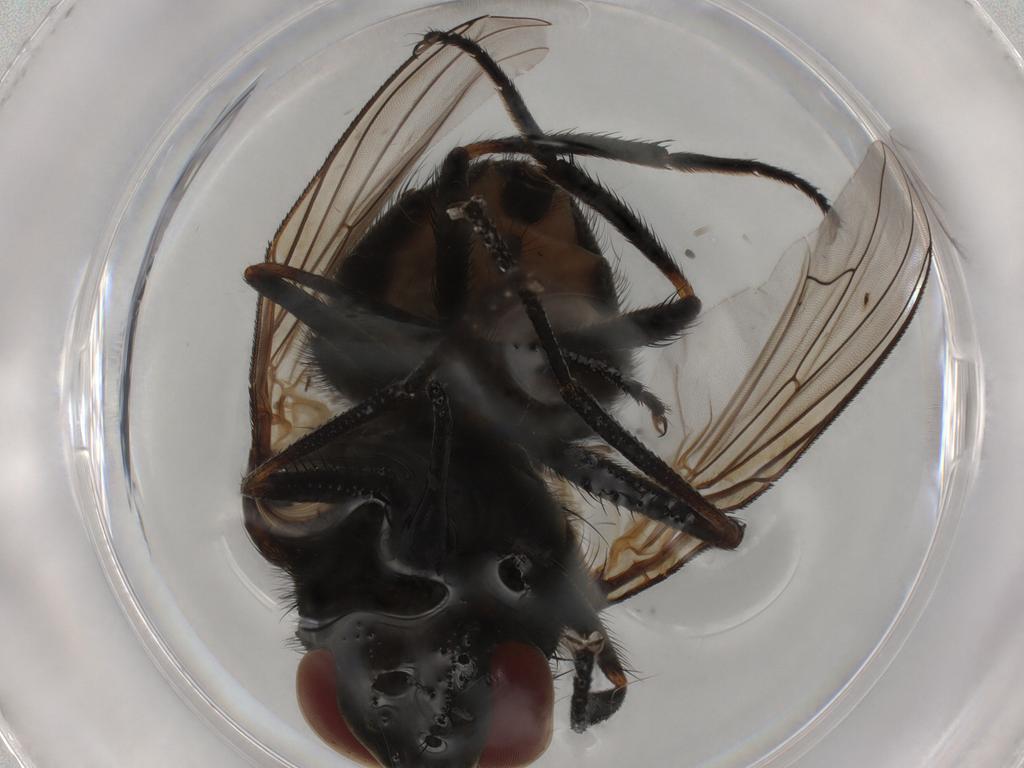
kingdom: Animalia
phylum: Arthropoda
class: Insecta
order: Diptera
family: Muscidae
